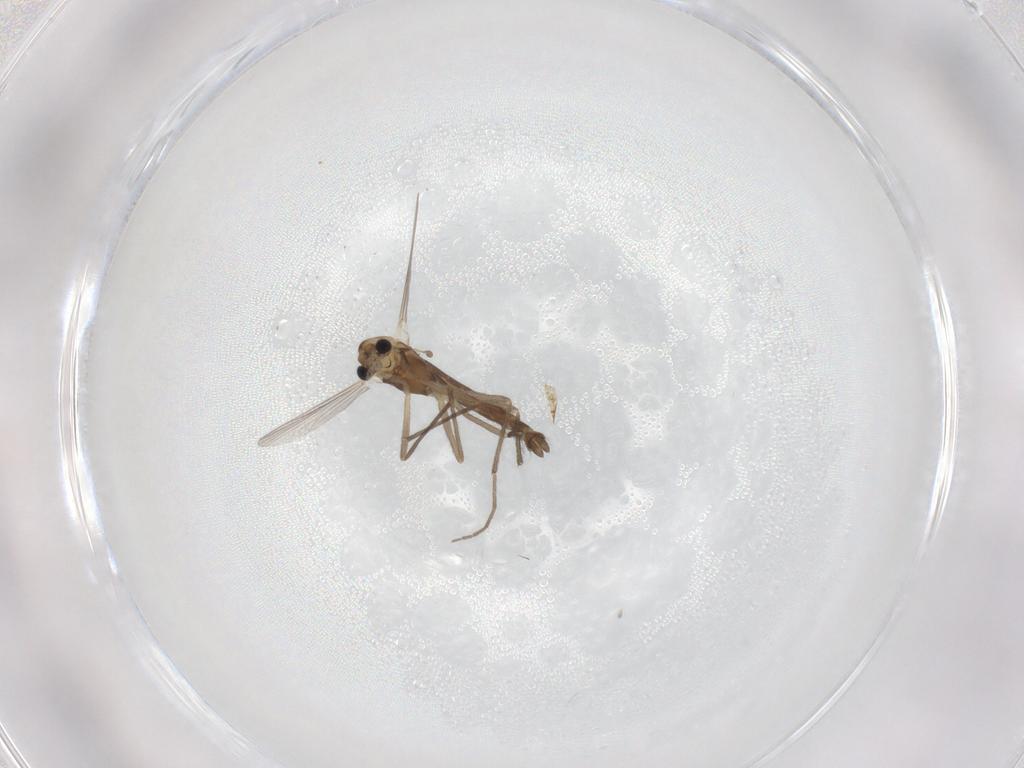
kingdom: Animalia
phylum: Arthropoda
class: Insecta
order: Diptera
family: Chironomidae
